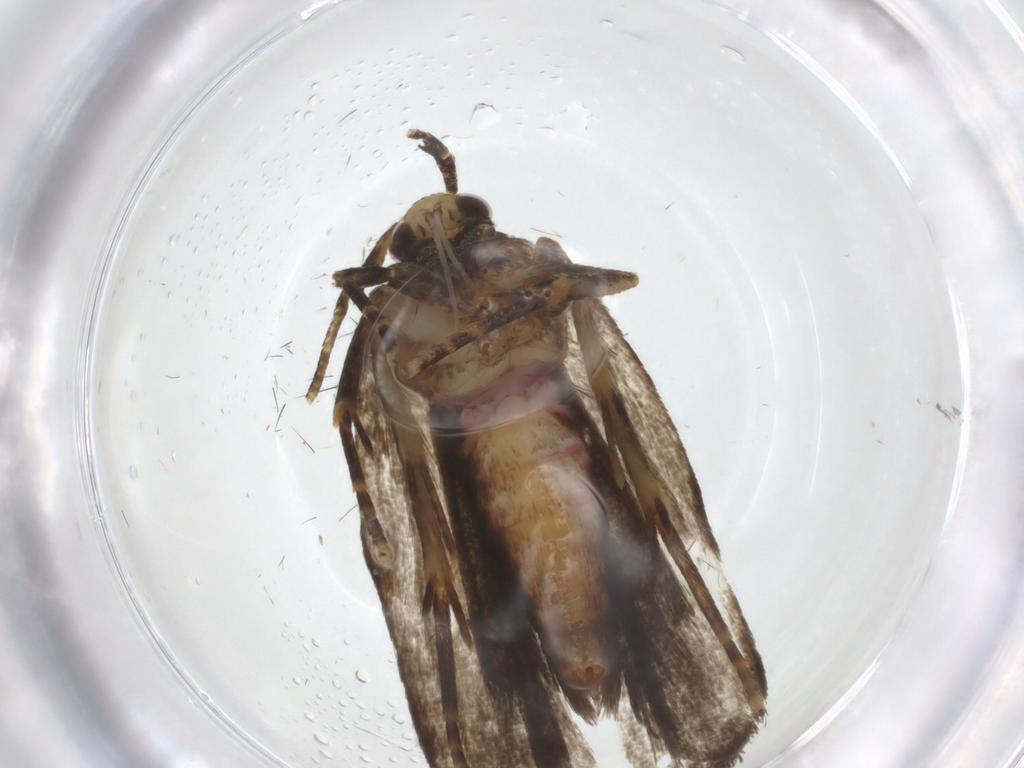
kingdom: Animalia
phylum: Arthropoda
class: Insecta
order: Lepidoptera
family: Autostichidae
